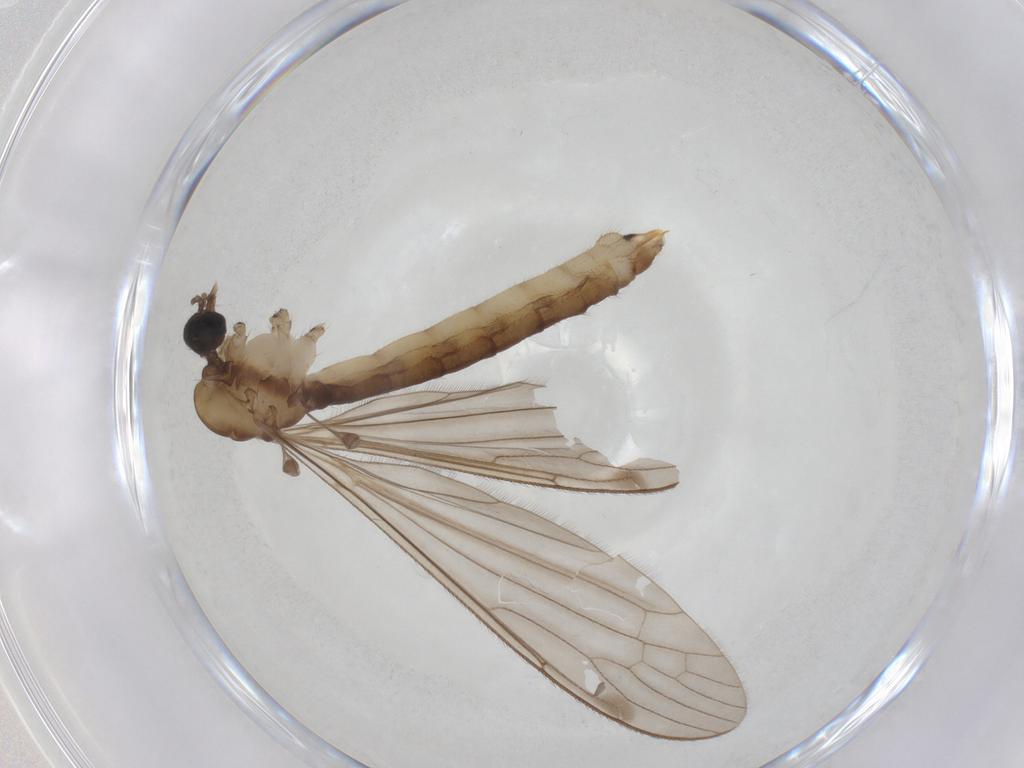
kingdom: Animalia
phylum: Arthropoda
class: Insecta
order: Diptera
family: Limoniidae
